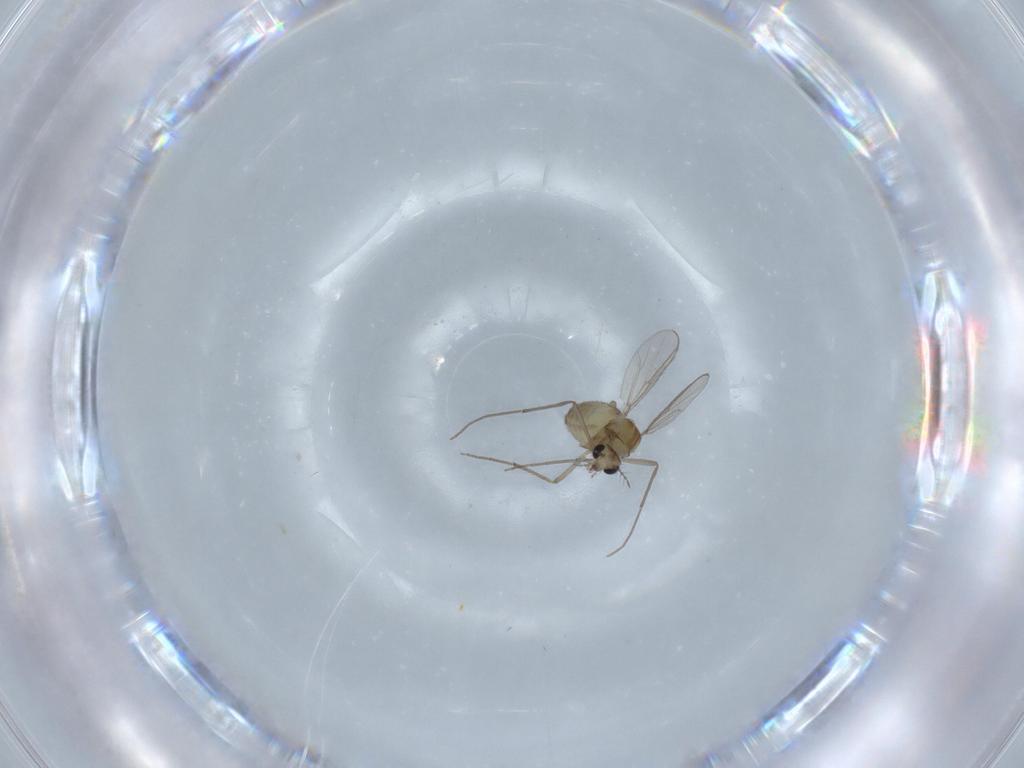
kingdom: Animalia
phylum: Arthropoda
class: Insecta
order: Diptera
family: Chironomidae
